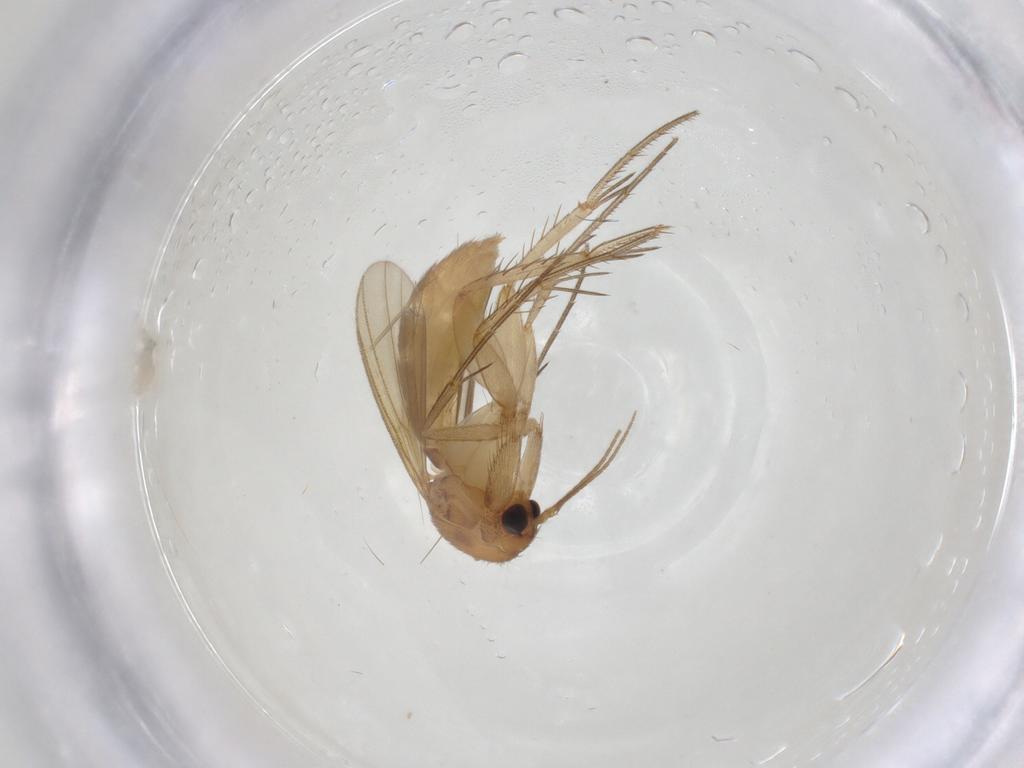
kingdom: Animalia
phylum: Arthropoda
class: Insecta
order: Diptera
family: Mycetophilidae
